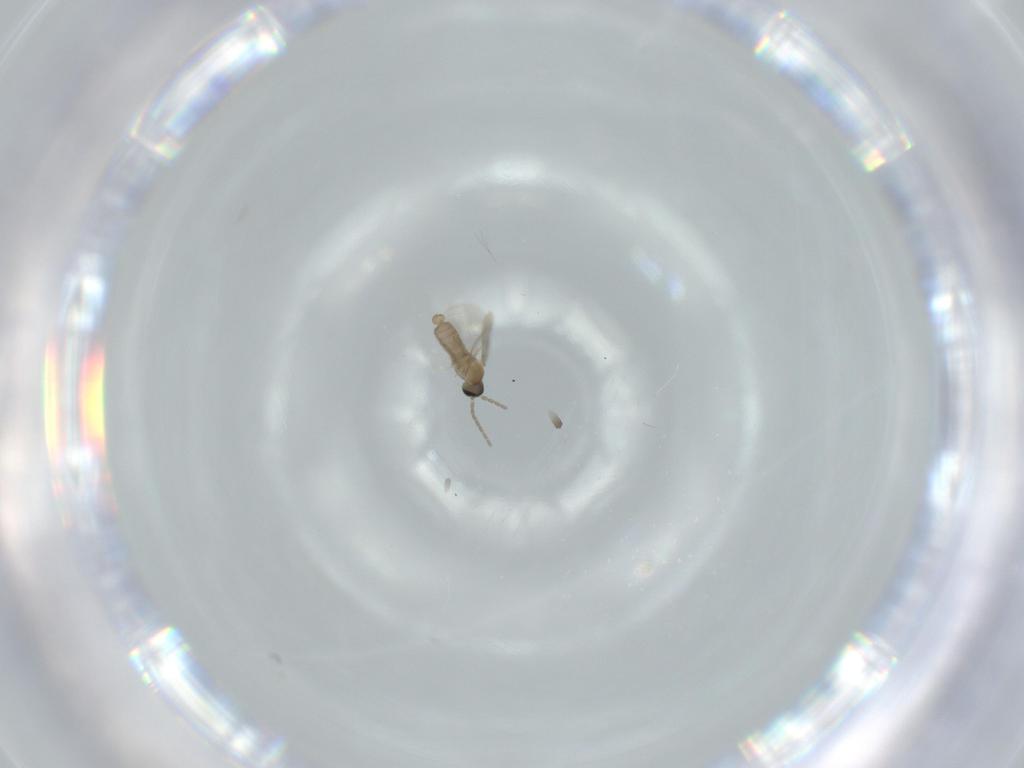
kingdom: Animalia
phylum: Arthropoda
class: Insecta
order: Diptera
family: Cecidomyiidae
